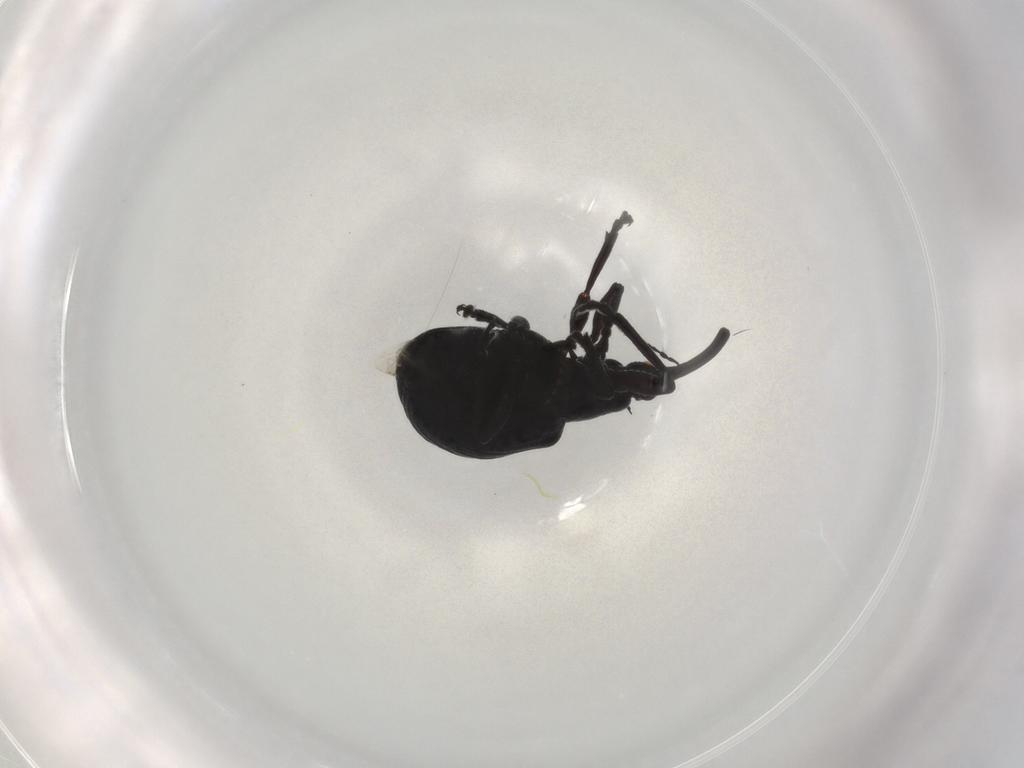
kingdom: Animalia
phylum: Arthropoda
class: Insecta
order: Coleoptera
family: Brentidae
